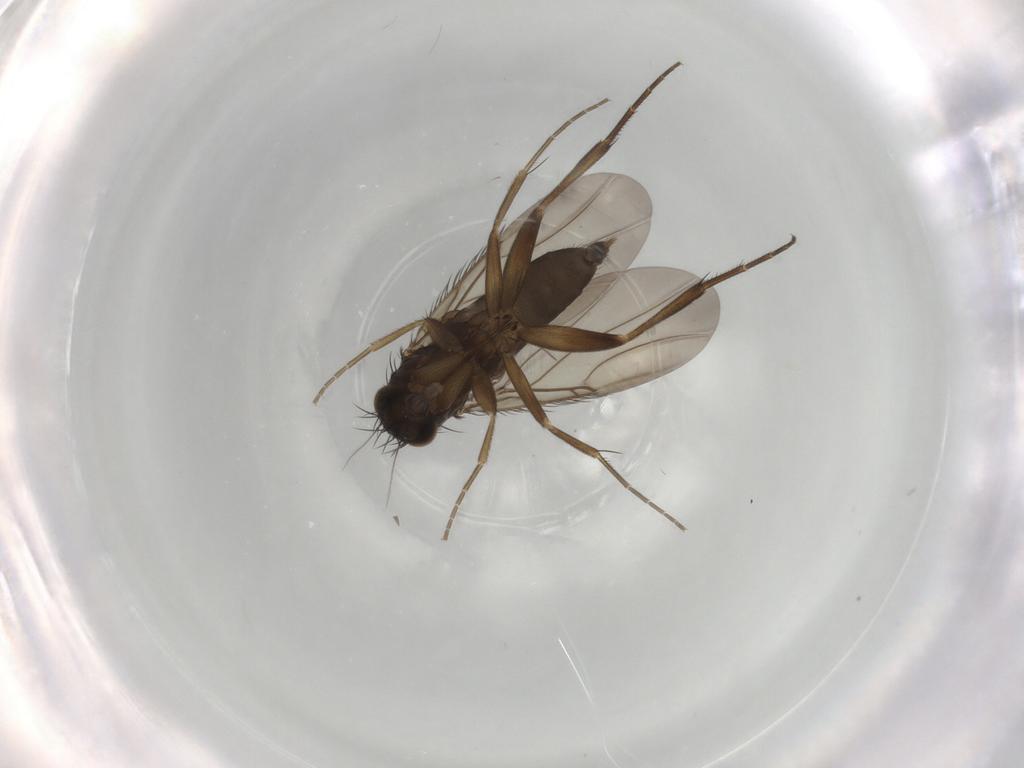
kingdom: Animalia
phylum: Arthropoda
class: Insecta
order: Diptera
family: Phoridae
